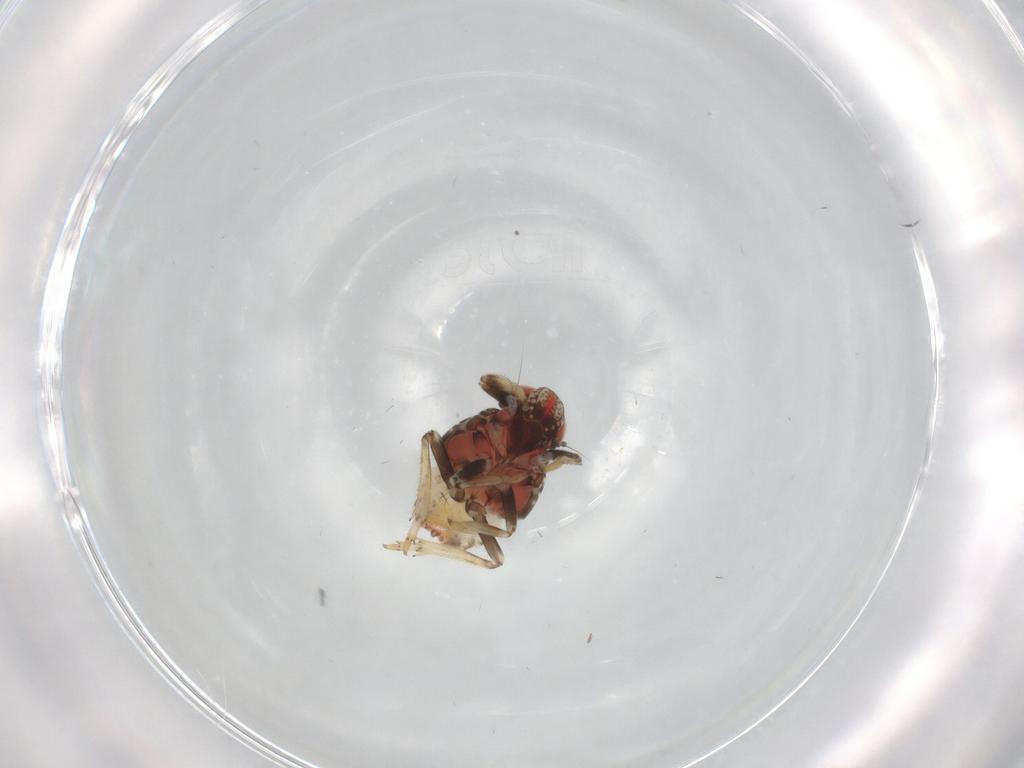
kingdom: Animalia
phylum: Arthropoda
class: Insecta
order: Hemiptera
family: Issidae
